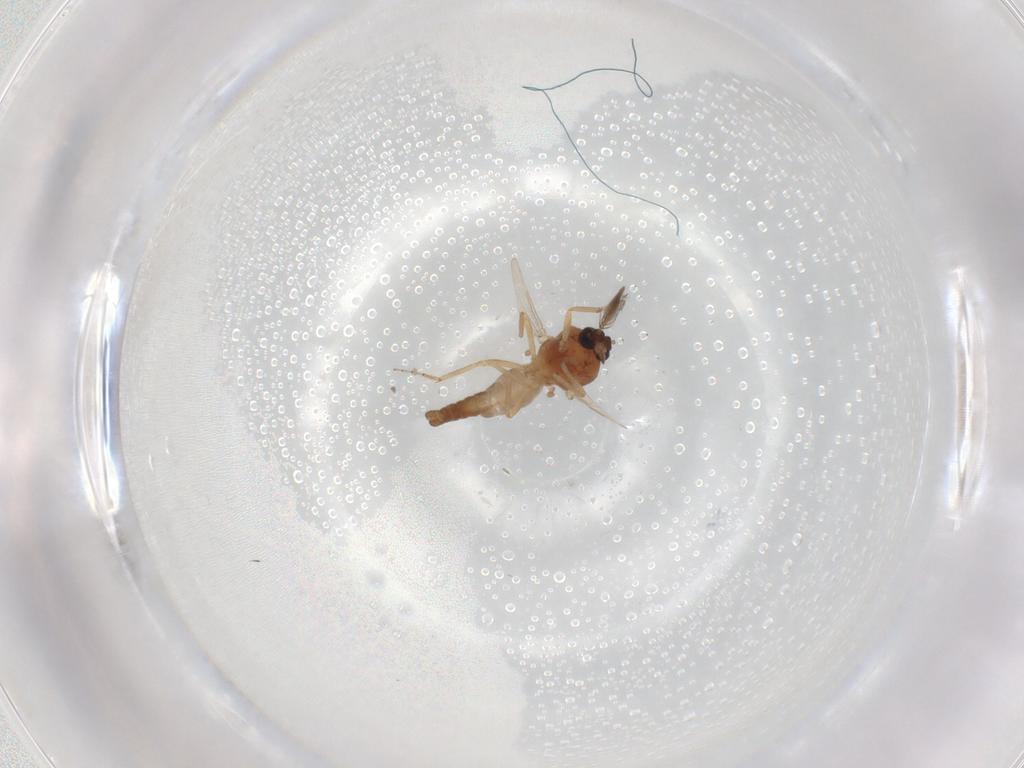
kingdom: Animalia
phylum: Arthropoda
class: Insecta
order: Diptera
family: Ceratopogonidae
